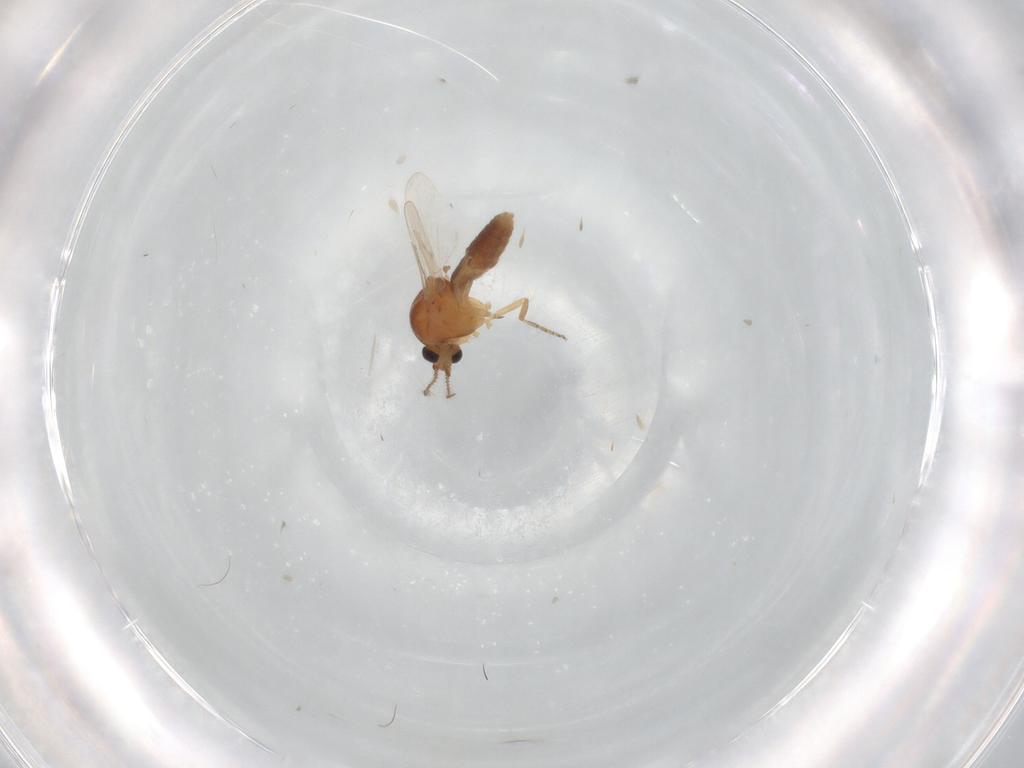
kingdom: Animalia
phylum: Arthropoda
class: Insecta
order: Diptera
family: Ceratopogonidae
